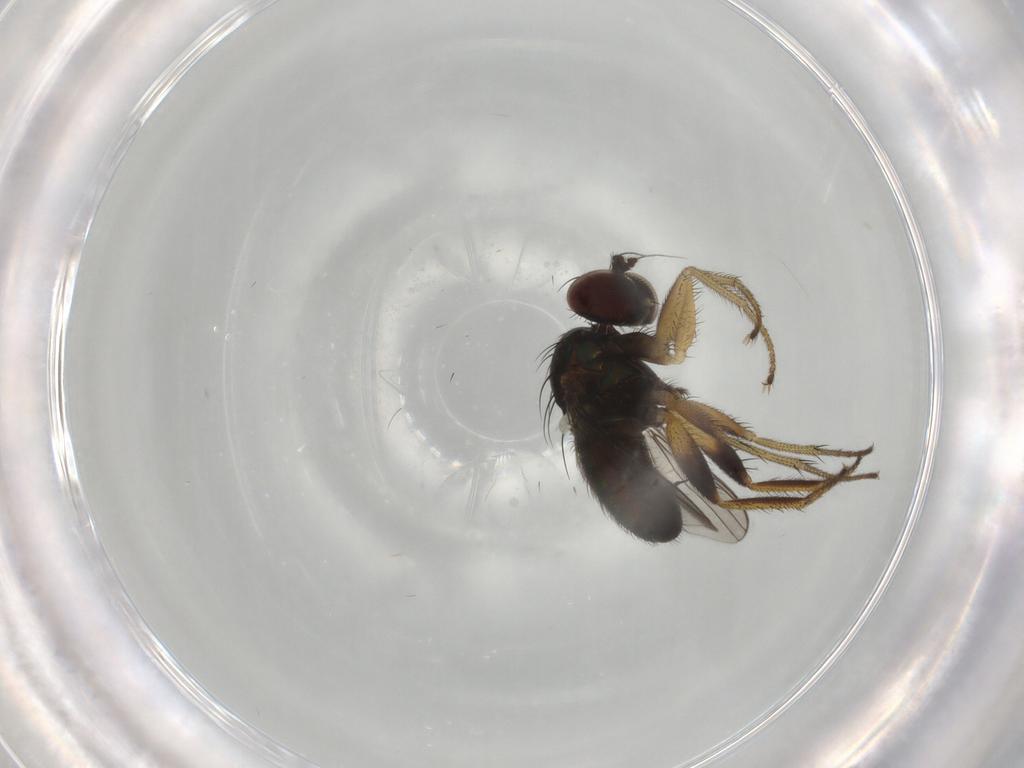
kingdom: Animalia
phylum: Arthropoda
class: Insecta
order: Diptera
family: Dolichopodidae
